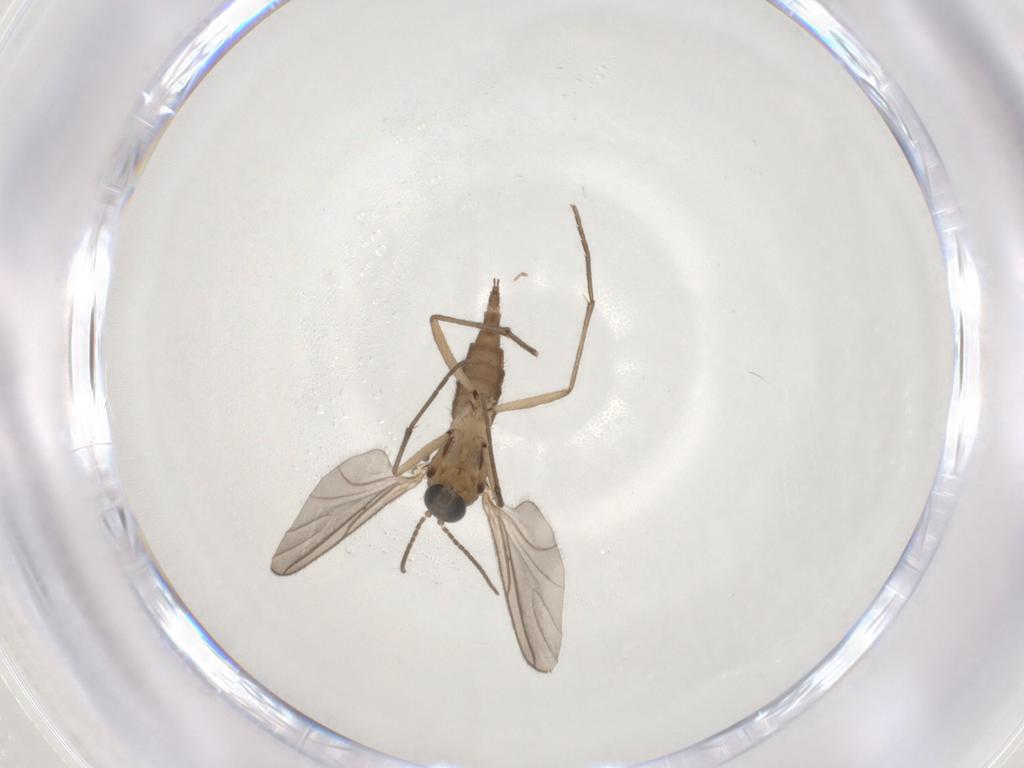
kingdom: Animalia
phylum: Arthropoda
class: Insecta
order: Diptera
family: Sciaridae
